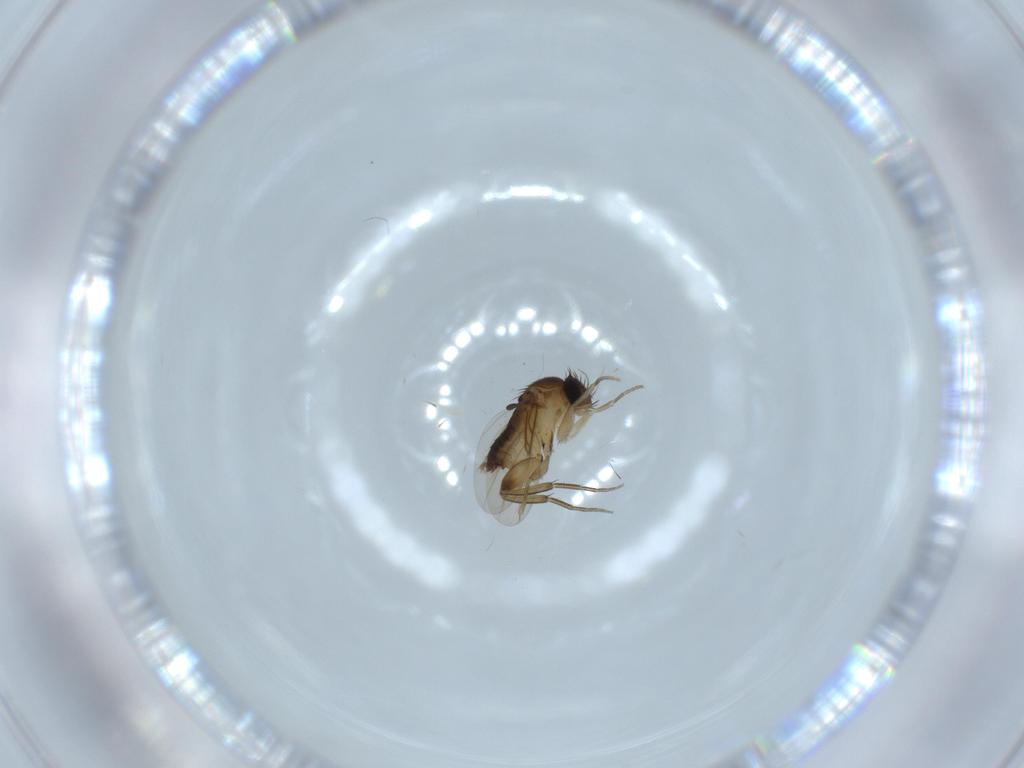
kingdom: Animalia
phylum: Arthropoda
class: Insecta
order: Diptera
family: Phoridae
